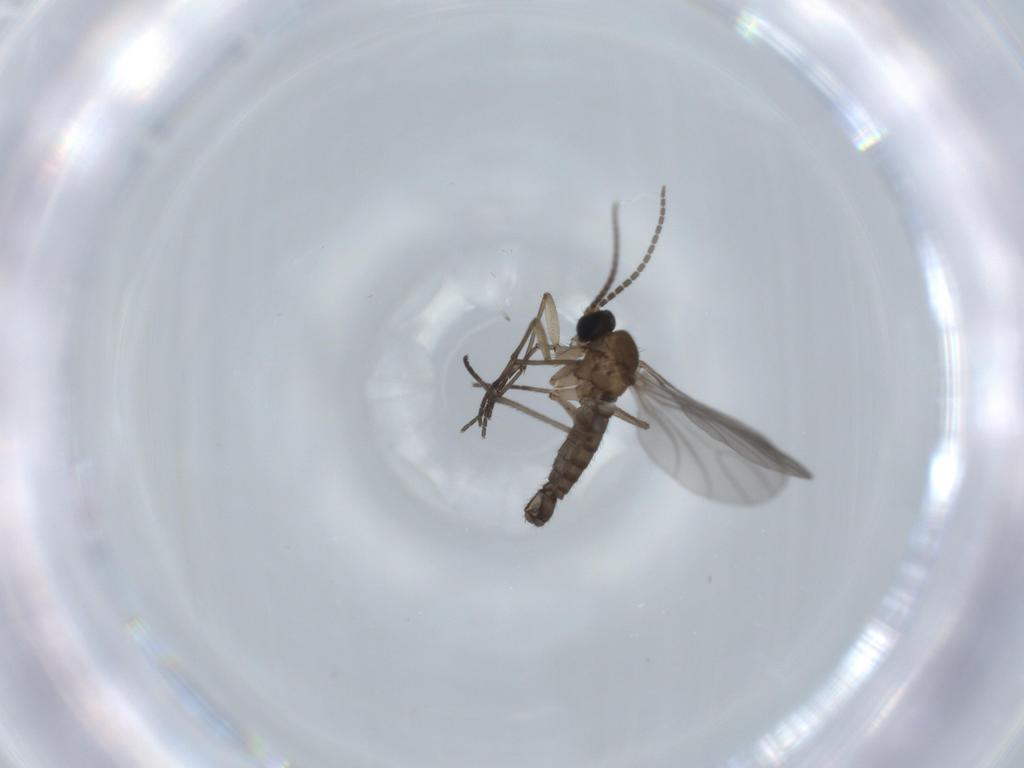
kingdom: Animalia
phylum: Arthropoda
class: Insecta
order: Diptera
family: Sciaridae
